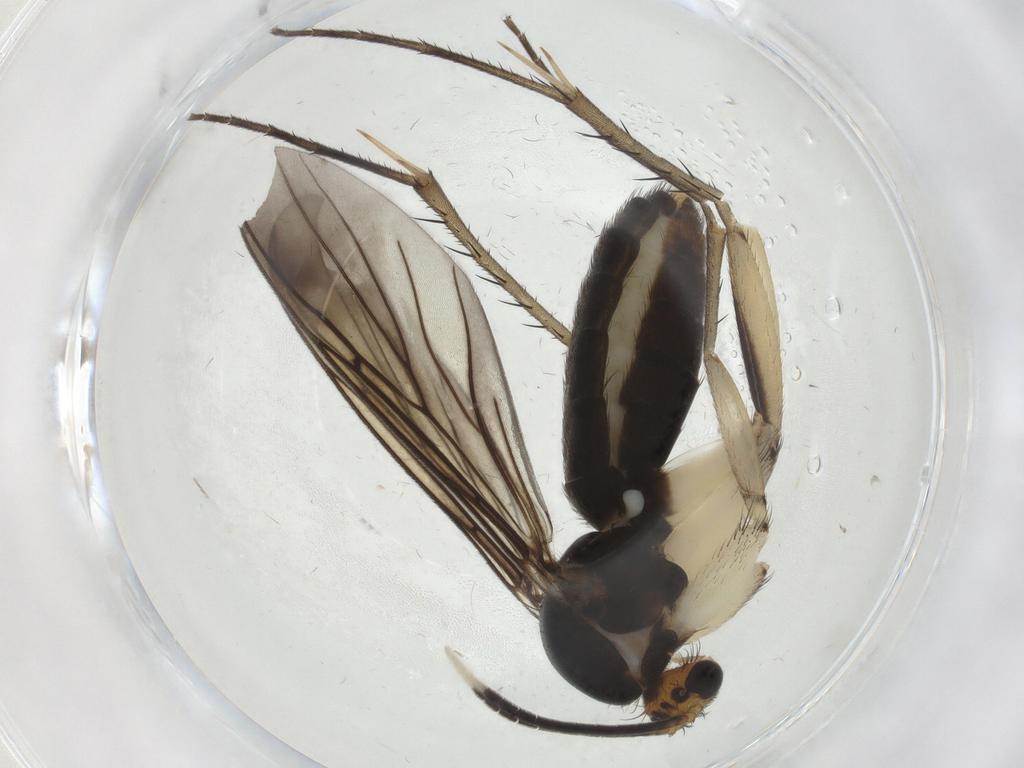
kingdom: Animalia
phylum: Arthropoda
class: Insecta
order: Diptera
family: Mycetophilidae
